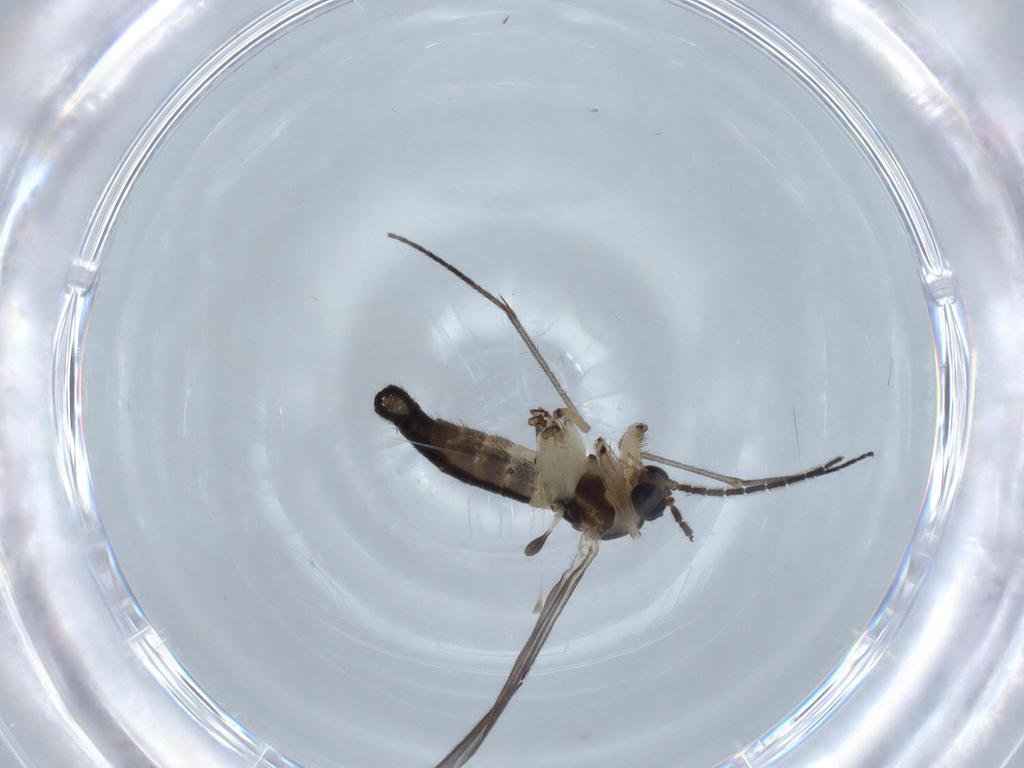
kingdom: Animalia
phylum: Arthropoda
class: Insecta
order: Diptera
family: Sciaridae
